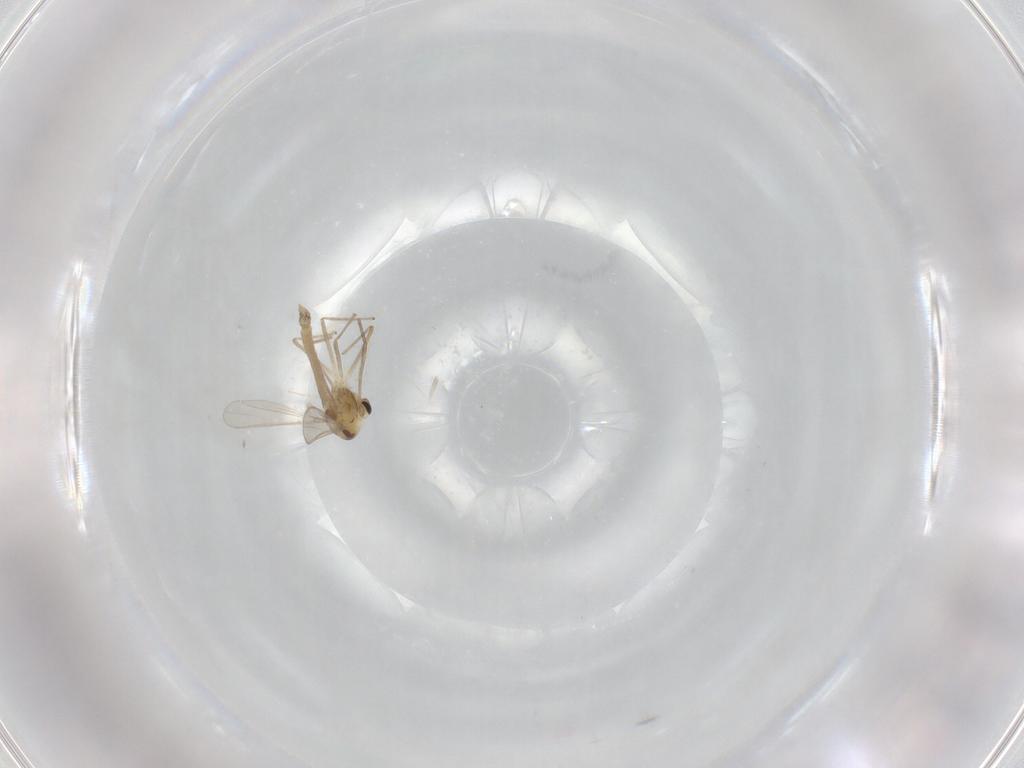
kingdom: Animalia
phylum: Arthropoda
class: Insecta
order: Diptera
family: Chironomidae
